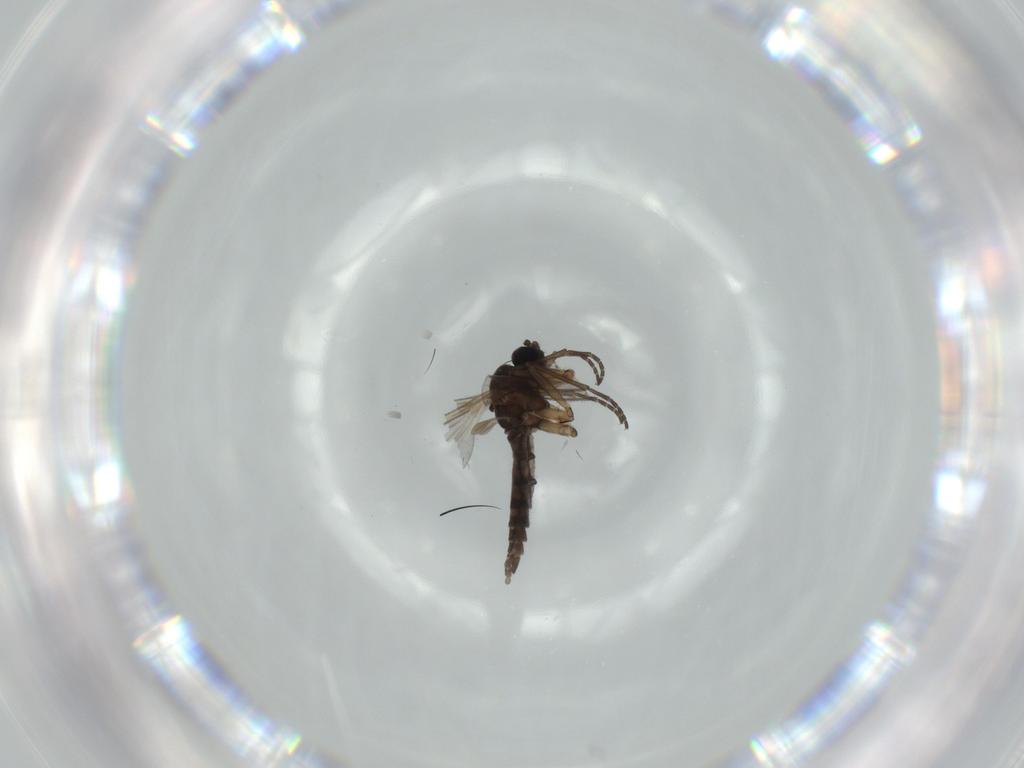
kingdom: Animalia
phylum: Arthropoda
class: Insecta
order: Diptera
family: Sciaridae
